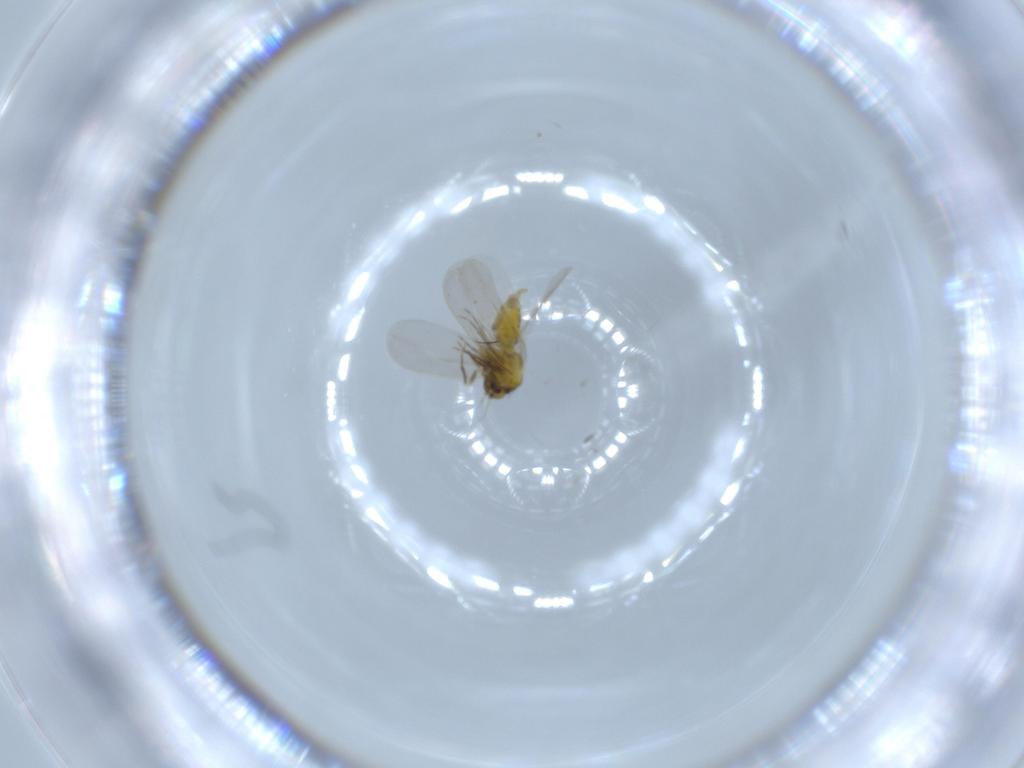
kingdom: Animalia
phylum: Arthropoda
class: Insecta
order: Hemiptera
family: Aleyrodidae
